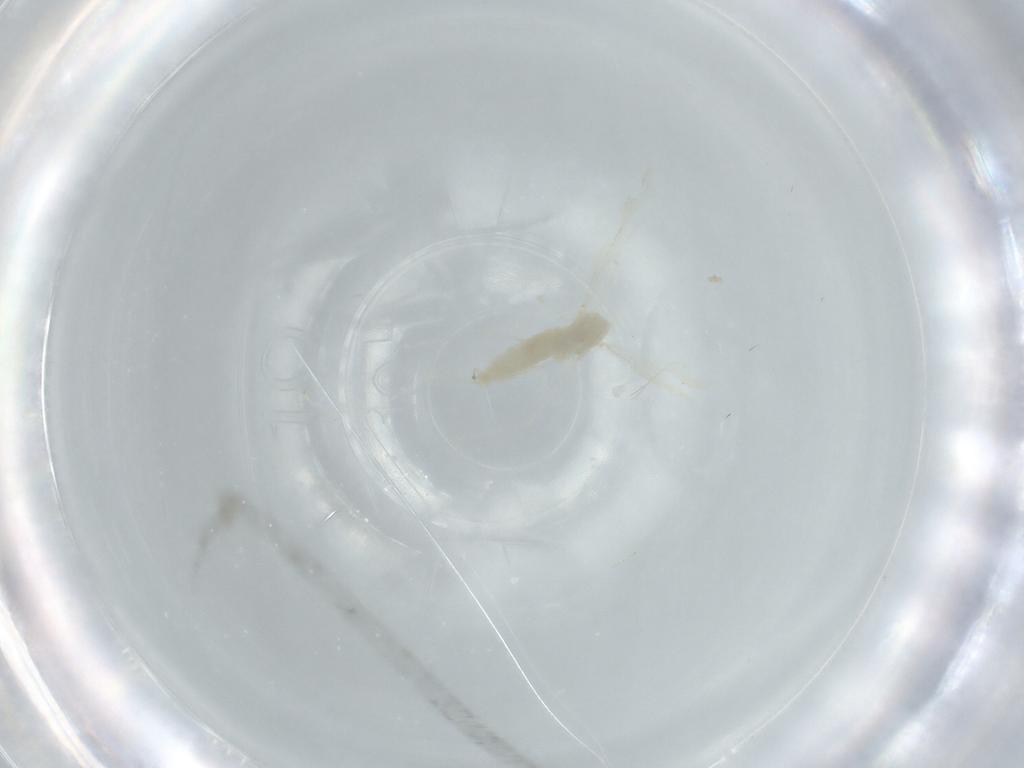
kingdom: Animalia
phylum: Arthropoda
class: Insecta
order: Diptera
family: Cecidomyiidae
